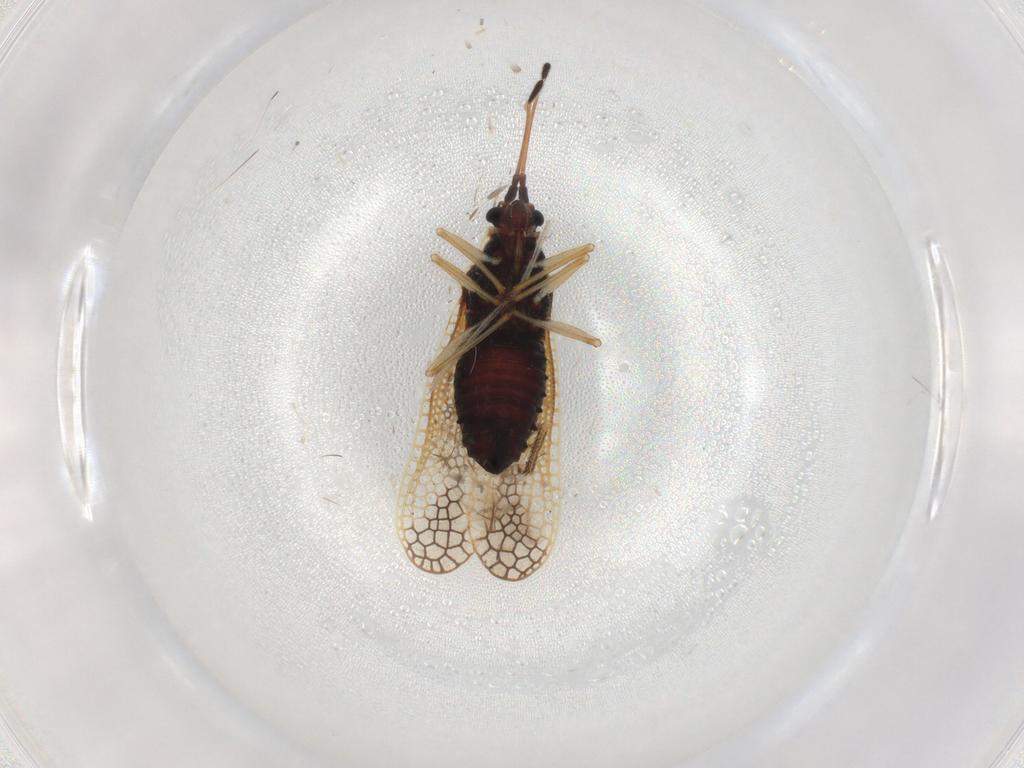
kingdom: Animalia
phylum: Arthropoda
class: Insecta
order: Hemiptera
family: Tingidae
